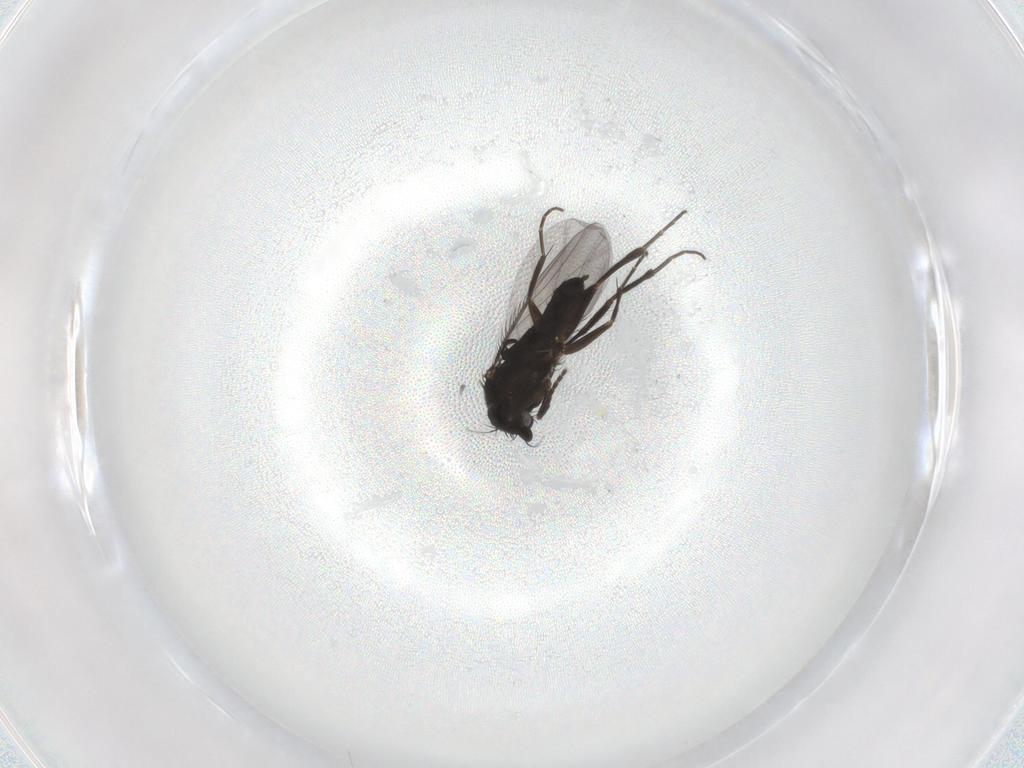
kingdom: Animalia
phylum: Arthropoda
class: Insecta
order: Diptera
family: Phoridae
